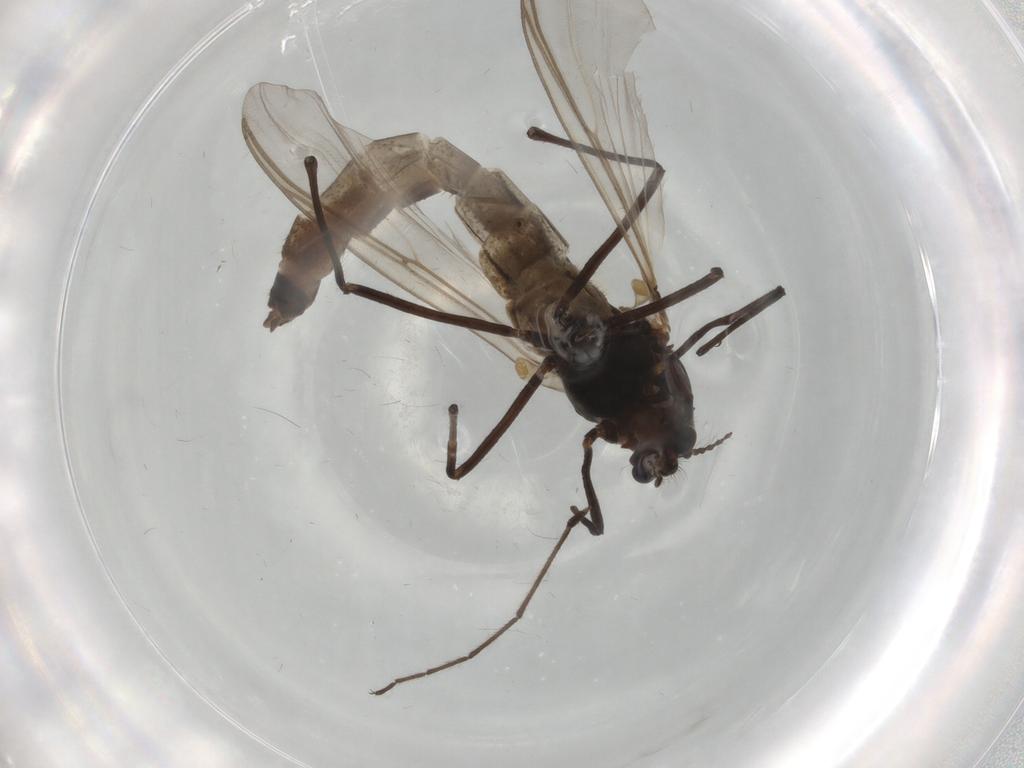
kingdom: Animalia
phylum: Arthropoda
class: Insecta
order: Diptera
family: Chironomidae
